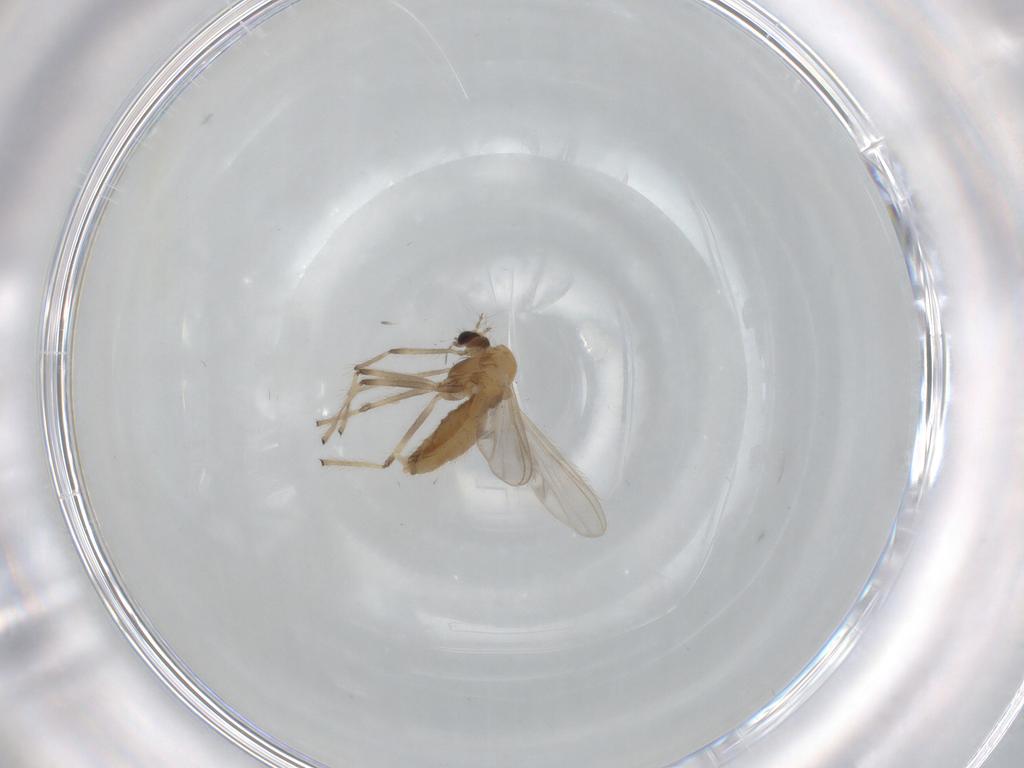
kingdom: Animalia
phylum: Arthropoda
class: Insecta
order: Diptera
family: Chironomidae
